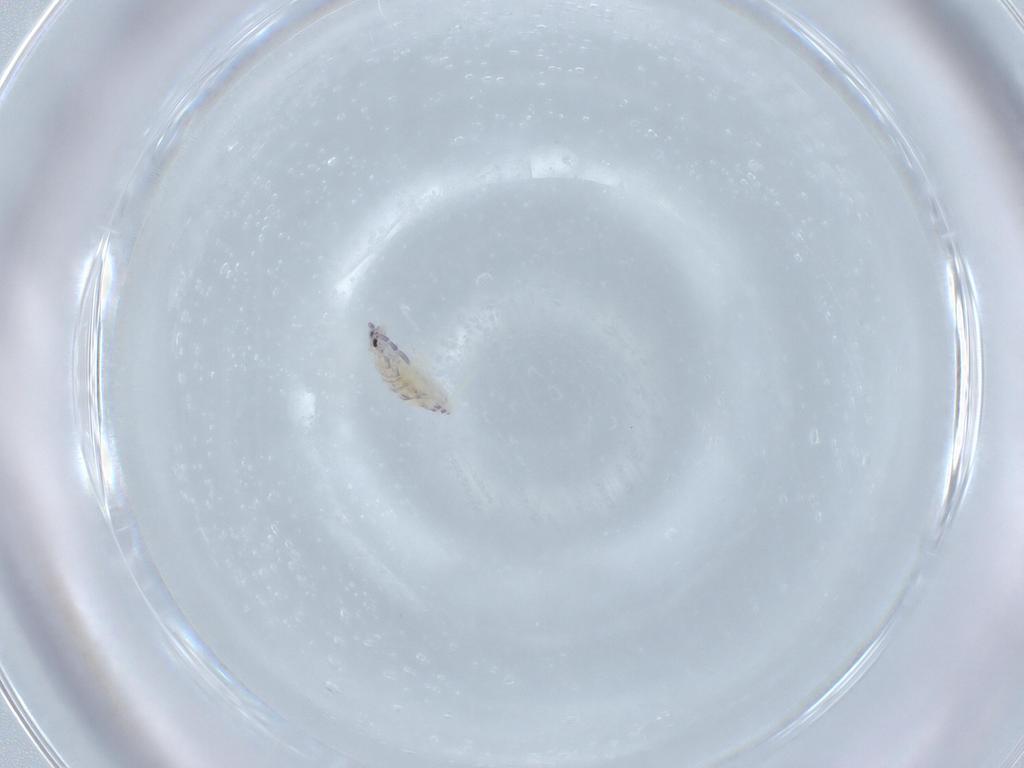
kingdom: Animalia
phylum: Arthropoda
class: Collembola
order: Entomobryomorpha
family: Entomobryidae
